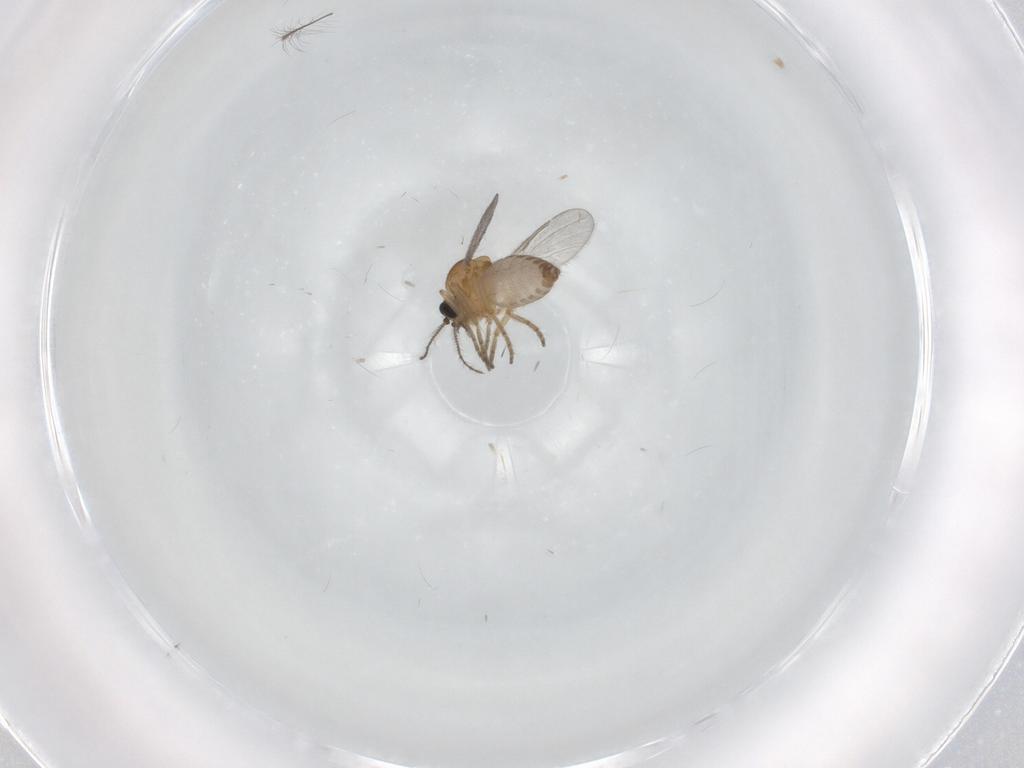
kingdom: Animalia
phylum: Arthropoda
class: Insecta
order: Diptera
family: Chironomidae
